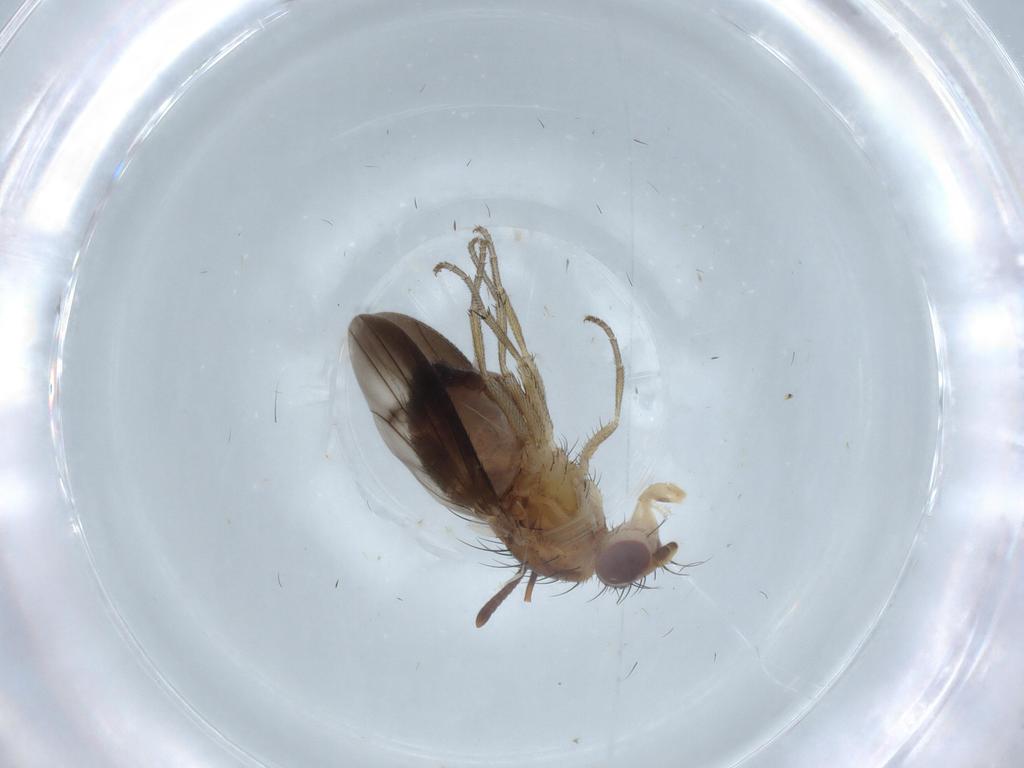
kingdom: Animalia
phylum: Arthropoda
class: Insecta
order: Diptera
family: Heleomyzidae
